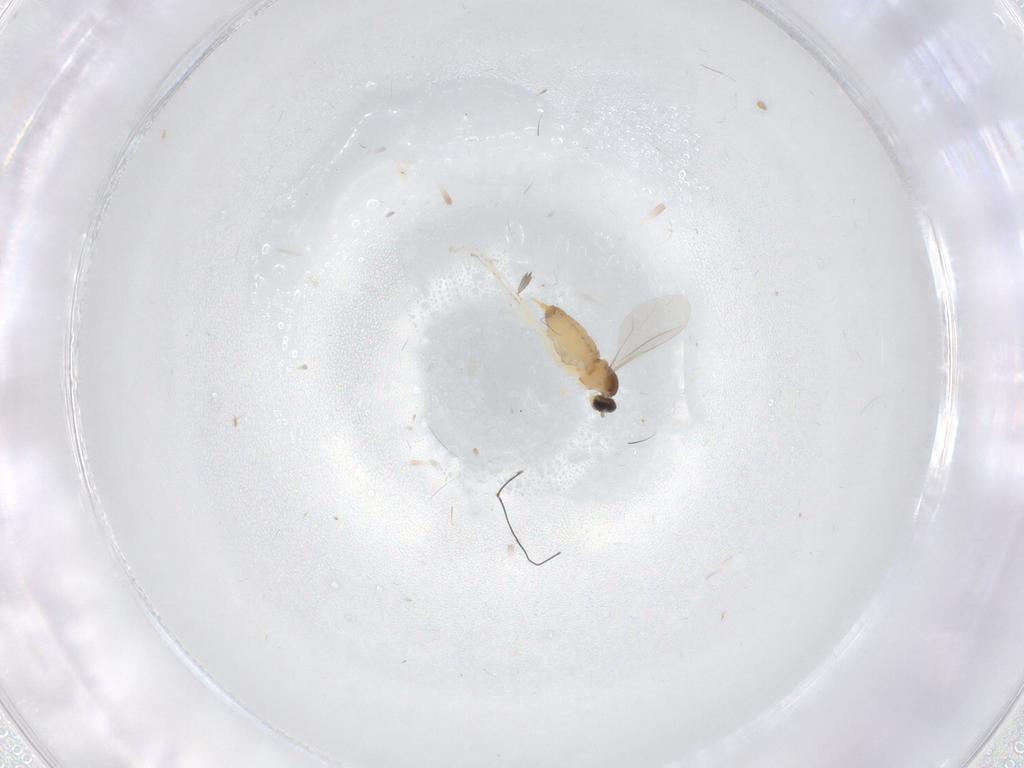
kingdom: Animalia
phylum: Arthropoda
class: Insecta
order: Diptera
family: Cecidomyiidae
